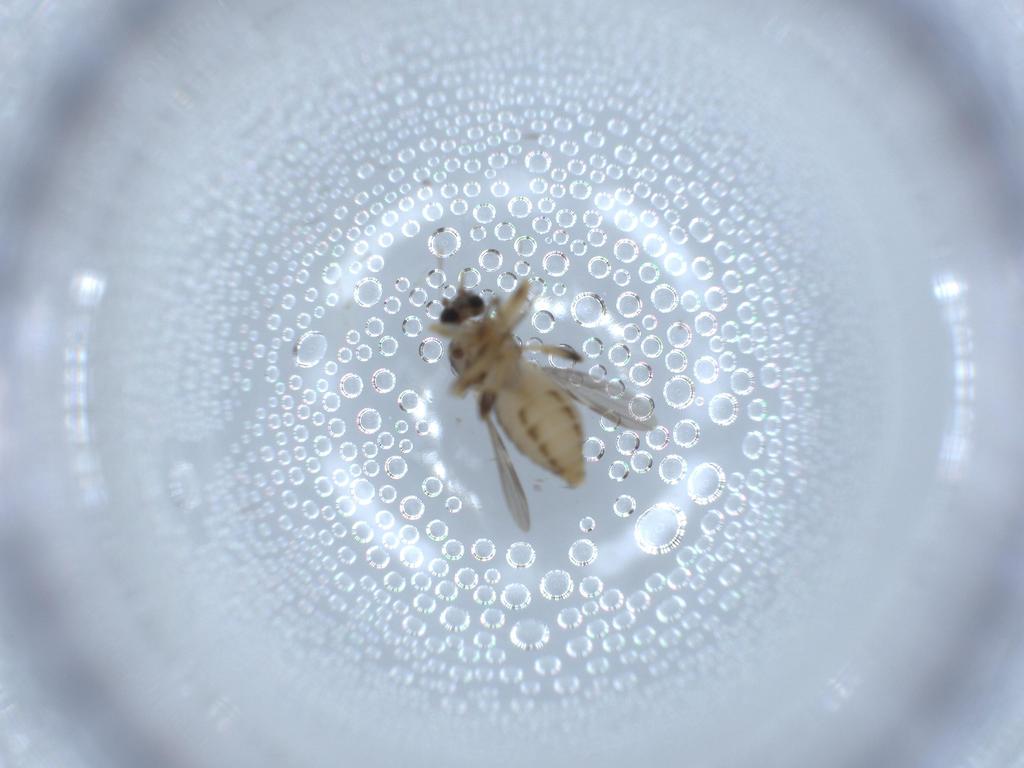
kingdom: Animalia
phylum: Arthropoda
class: Insecta
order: Diptera
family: Ceratopogonidae
